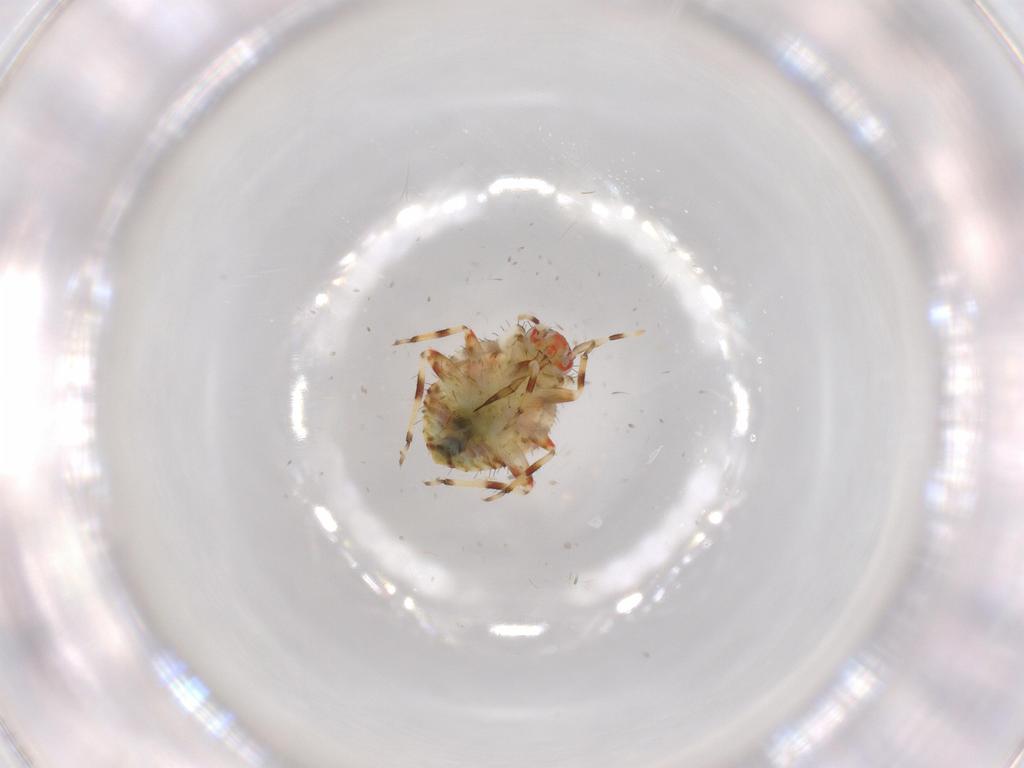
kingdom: Animalia
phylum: Arthropoda
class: Insecta
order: Hemiptera
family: Miridae
